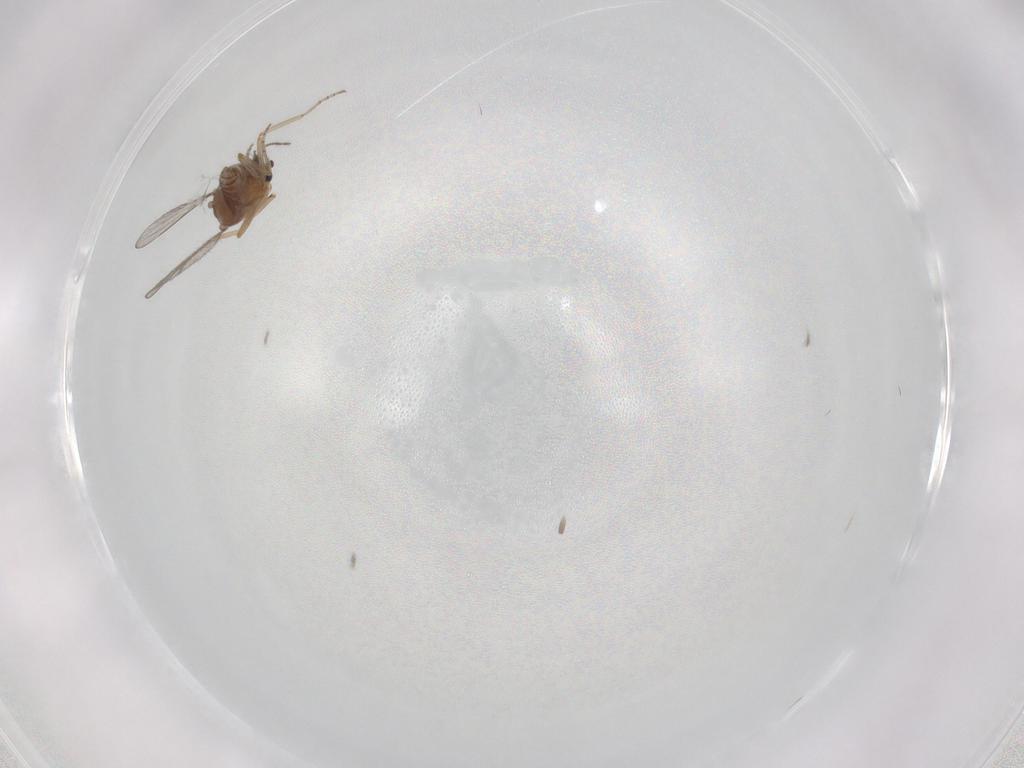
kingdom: Animalia
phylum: Arthropoda
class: Insecta
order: Diptera
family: Ceratopogonidae
